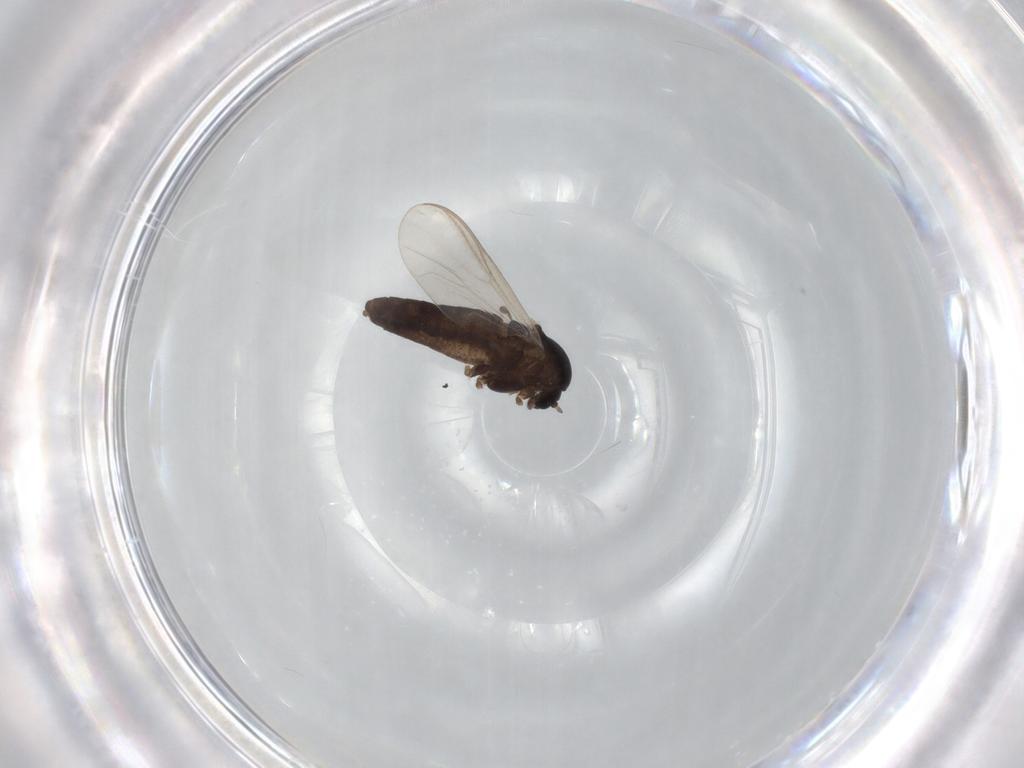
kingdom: Animalia
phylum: Arthropoda
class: Insecta
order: Diptera
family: Chironomidae
